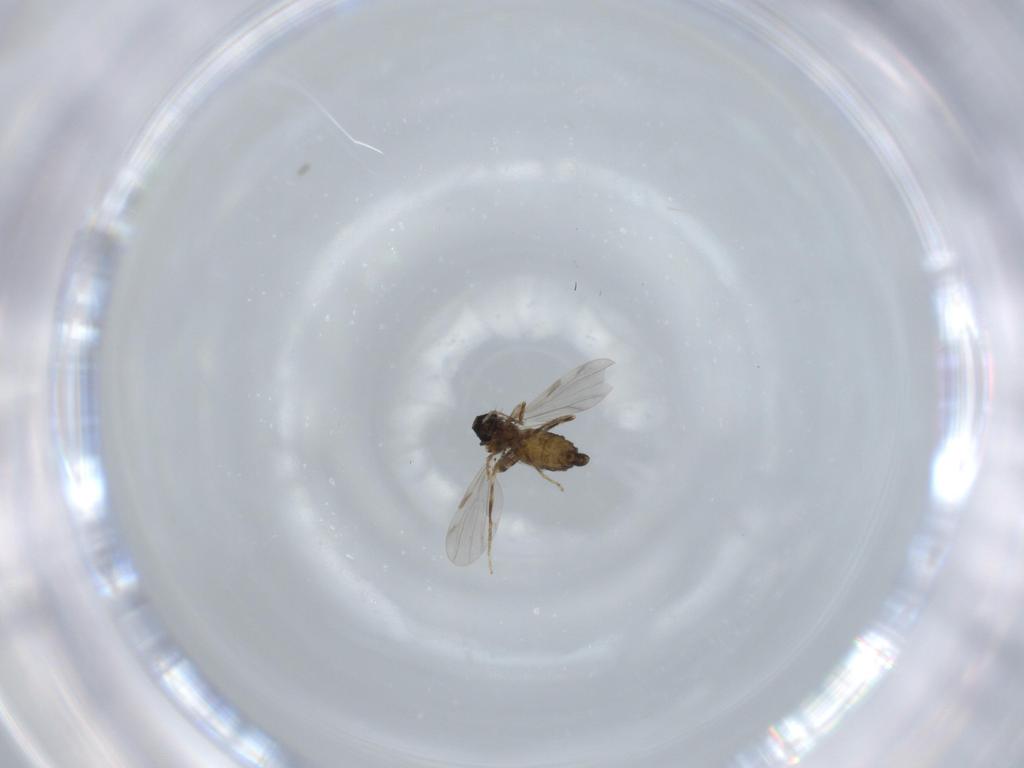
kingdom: Animalia
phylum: Arthropoda
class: Insecta
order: Diptera
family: Ceratopogonidae
